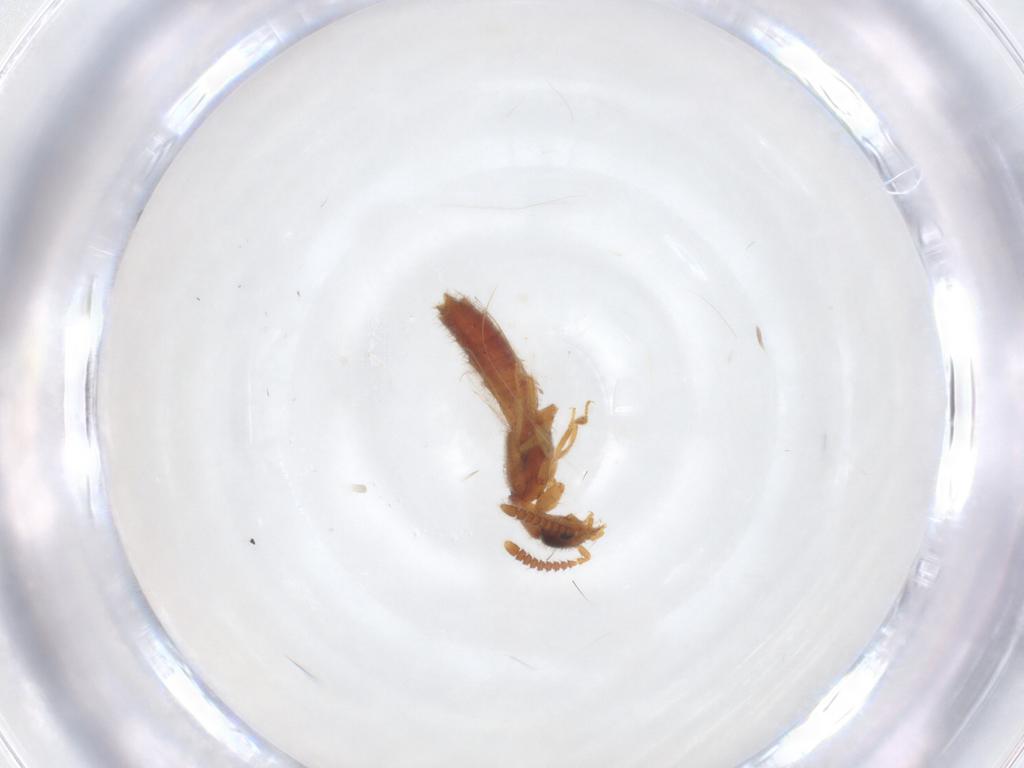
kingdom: Animalia
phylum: Arthropoda
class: Insecta
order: Coleoptera
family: Staphylinidae
